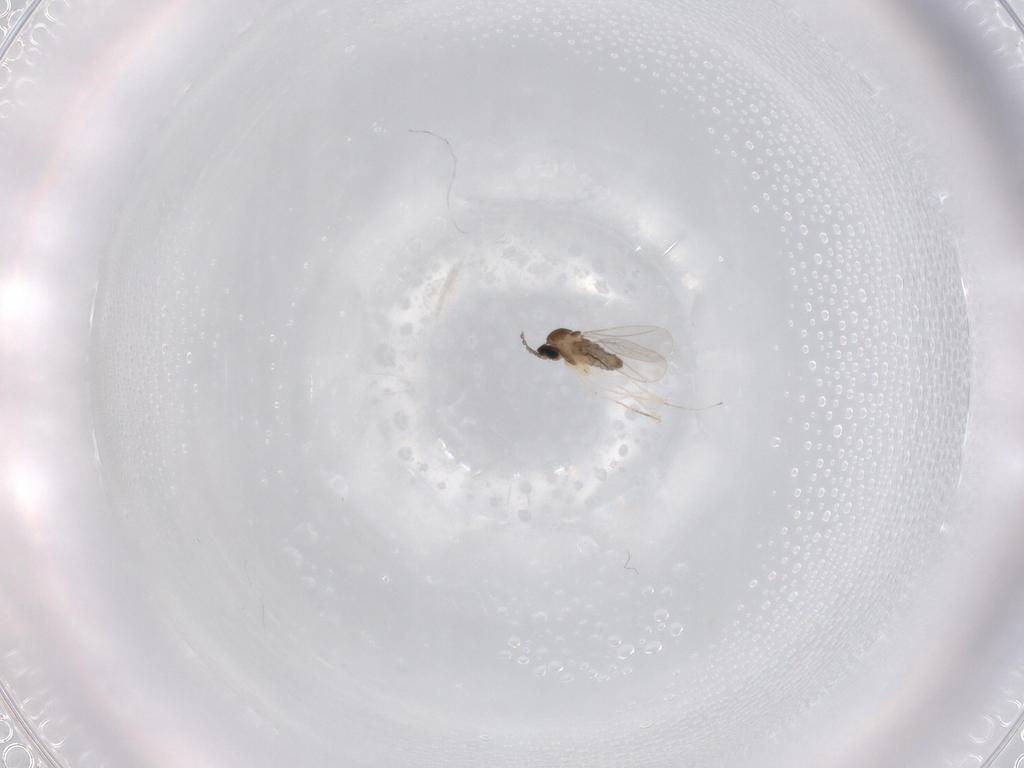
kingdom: Animalia
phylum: Arthropoda
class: Insecta
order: Diptera
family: Cecidomyiidae
